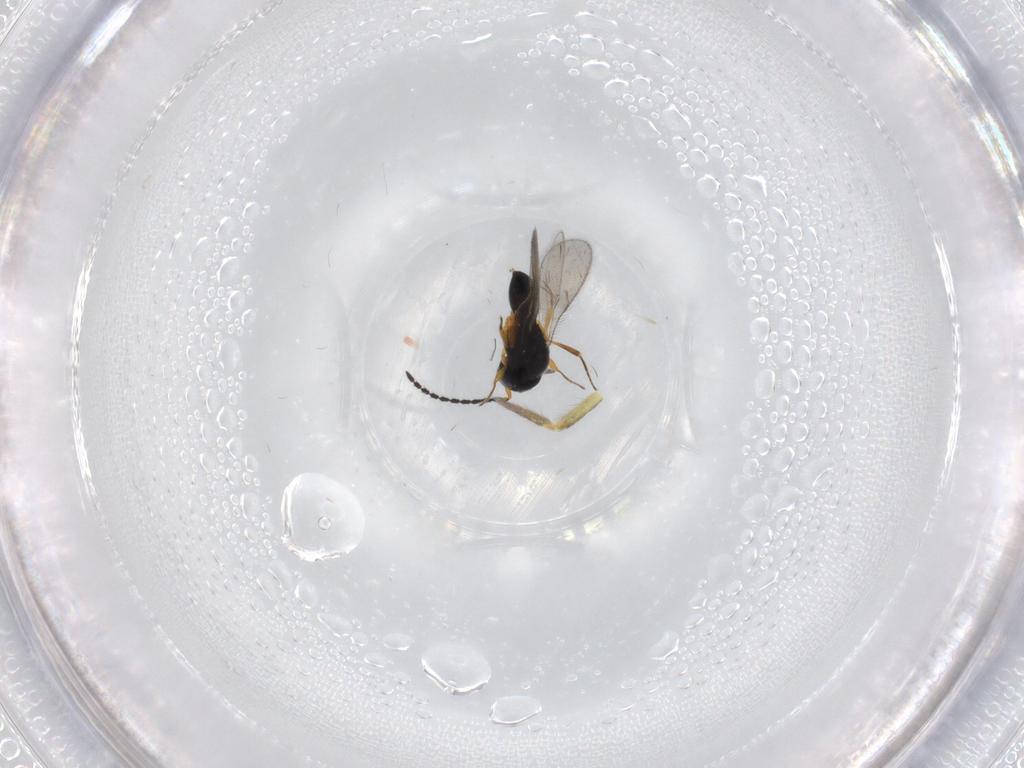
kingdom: Animalia
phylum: Arthropoda
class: Insecta
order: Hymenoptera
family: Scelionidae
